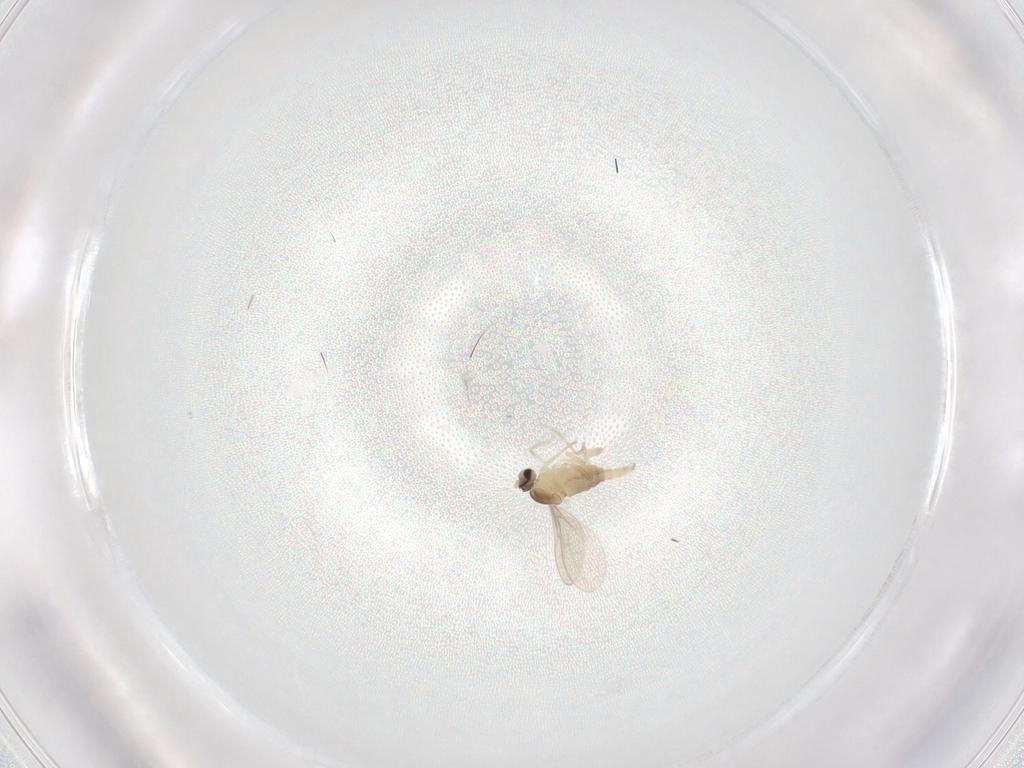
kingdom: Animalia
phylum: Arthropoda
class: Insecta
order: Diptera
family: Cecidomyiidae
